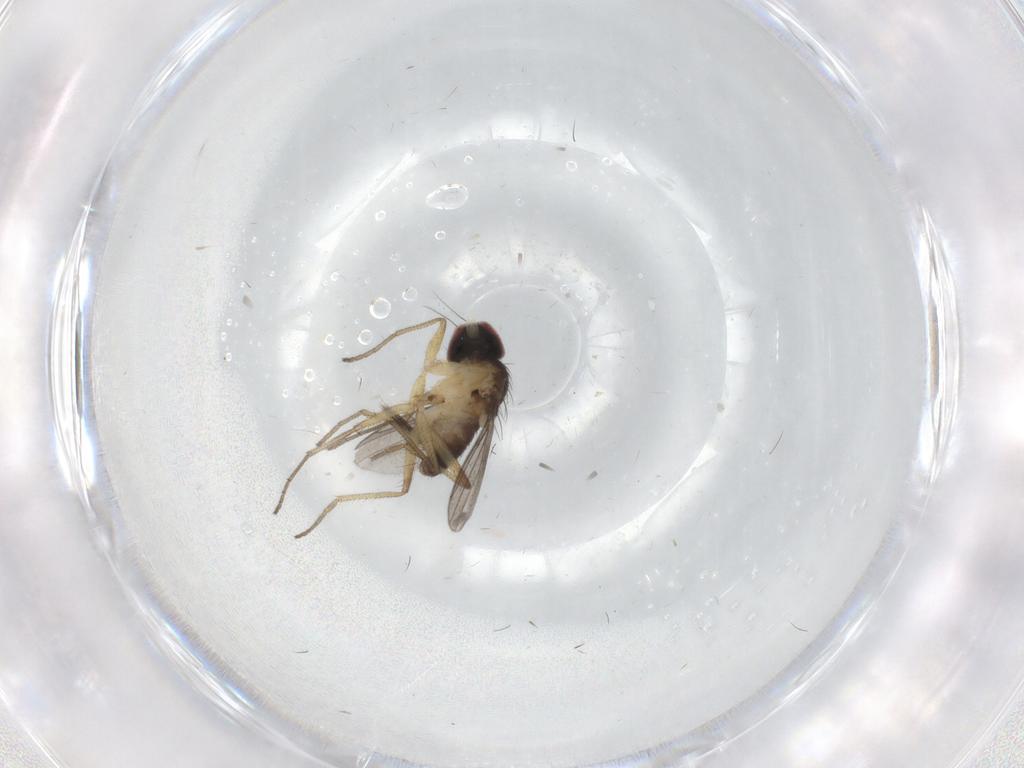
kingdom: Animalia
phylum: Arthropoda
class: Insecta
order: Diptera
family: Dolichopodidae
